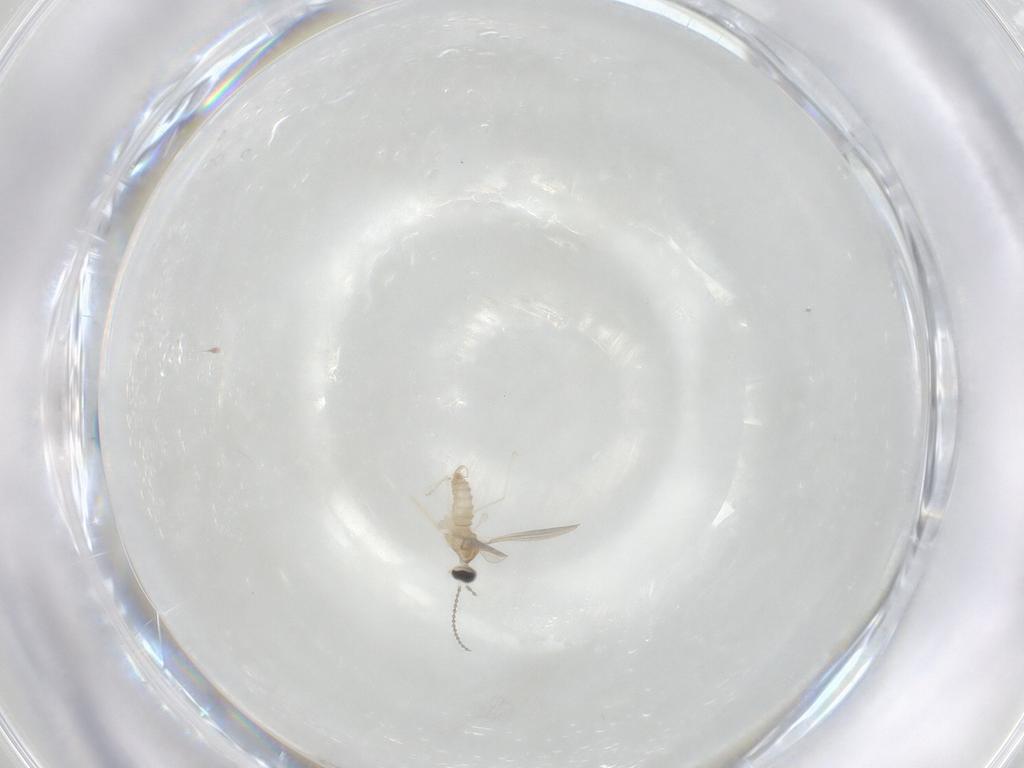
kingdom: Animalia
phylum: Arthropoda
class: Insecta
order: Diptera
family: Cecidomyiidae
